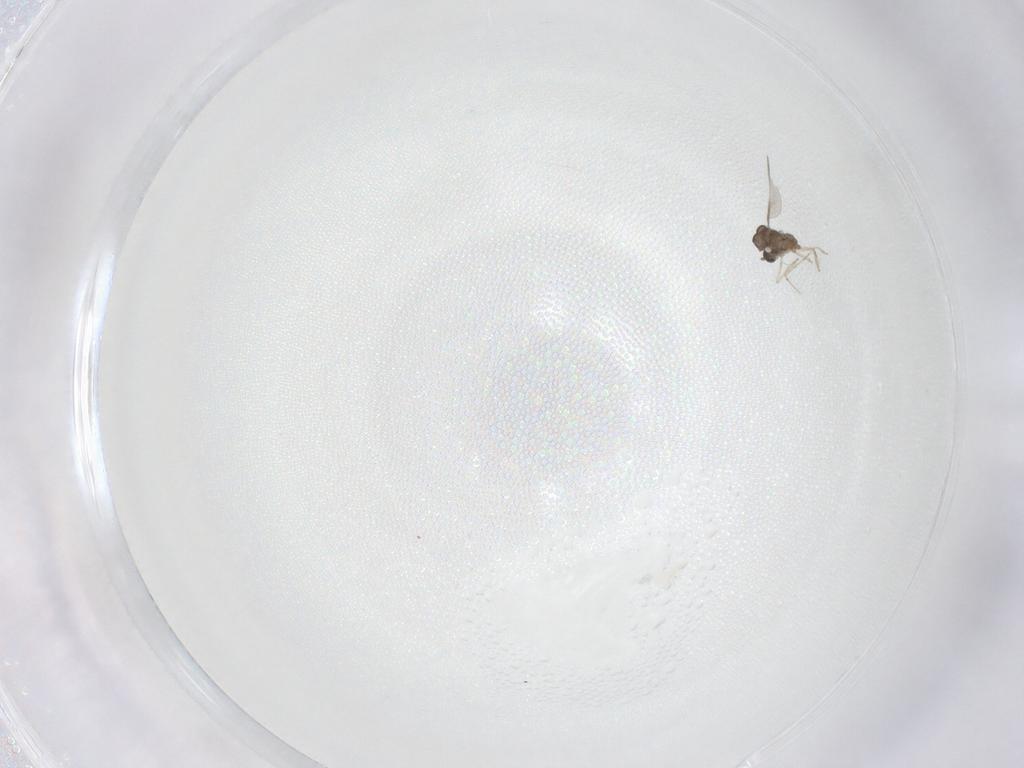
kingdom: Animalia
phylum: Arthropoda
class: Insecta
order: Diptera
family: Cecidomyiidae
